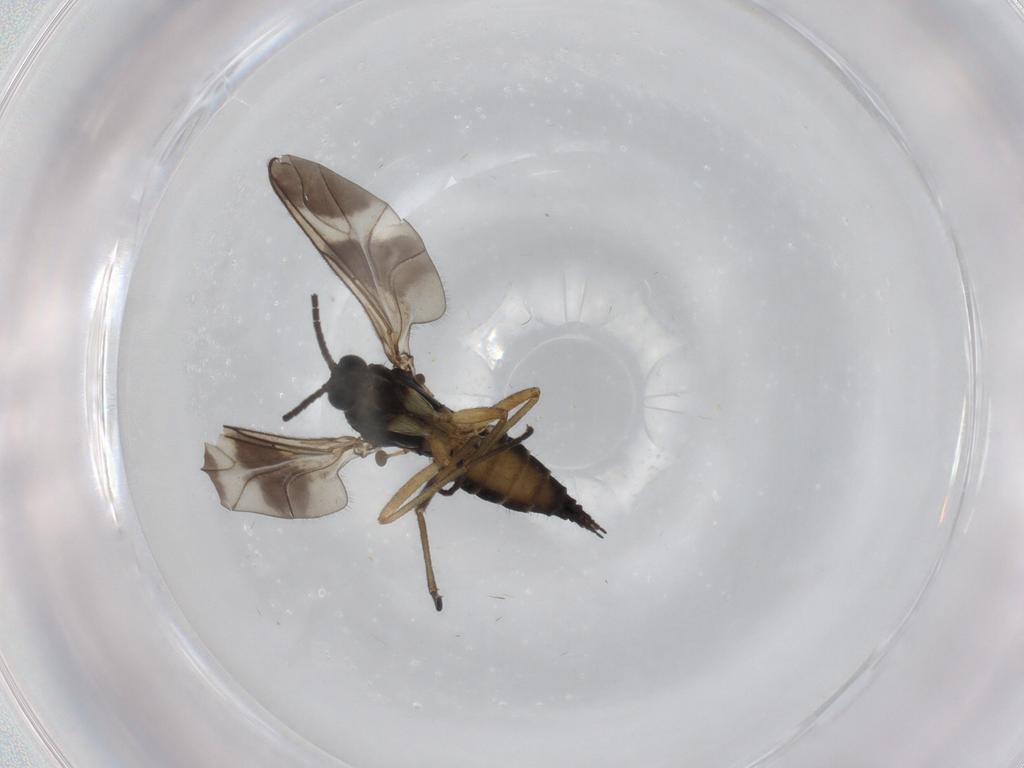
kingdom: Animalia
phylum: Arthropoda
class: Insecta
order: Diptera
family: Sciaridae
